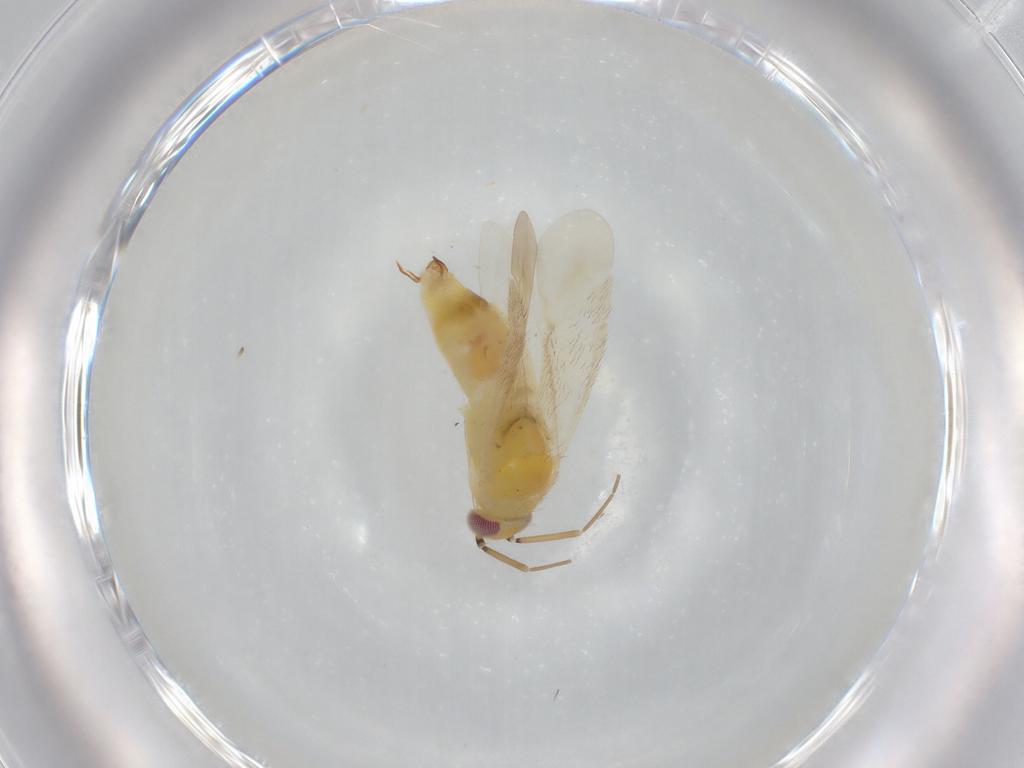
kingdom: Animalia
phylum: Arthropoda
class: Insecta
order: Hemiptera
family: Miridae
